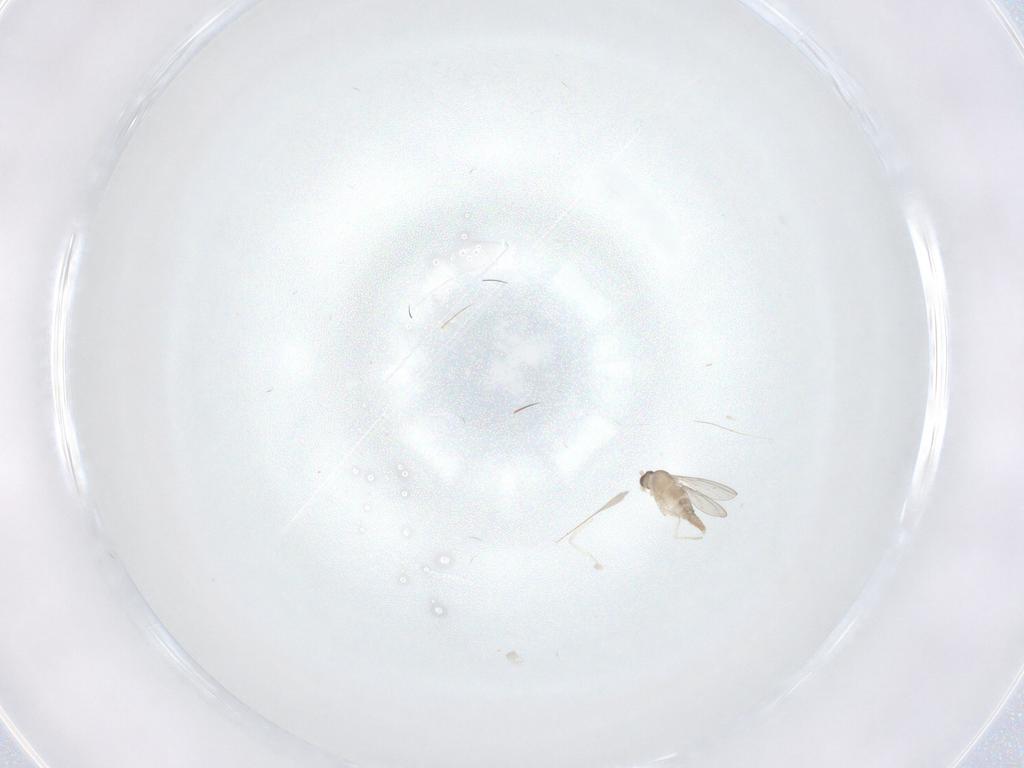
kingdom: Animalia
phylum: Arthropoda
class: Insecta
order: Diptera
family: Cecidomyiidae
